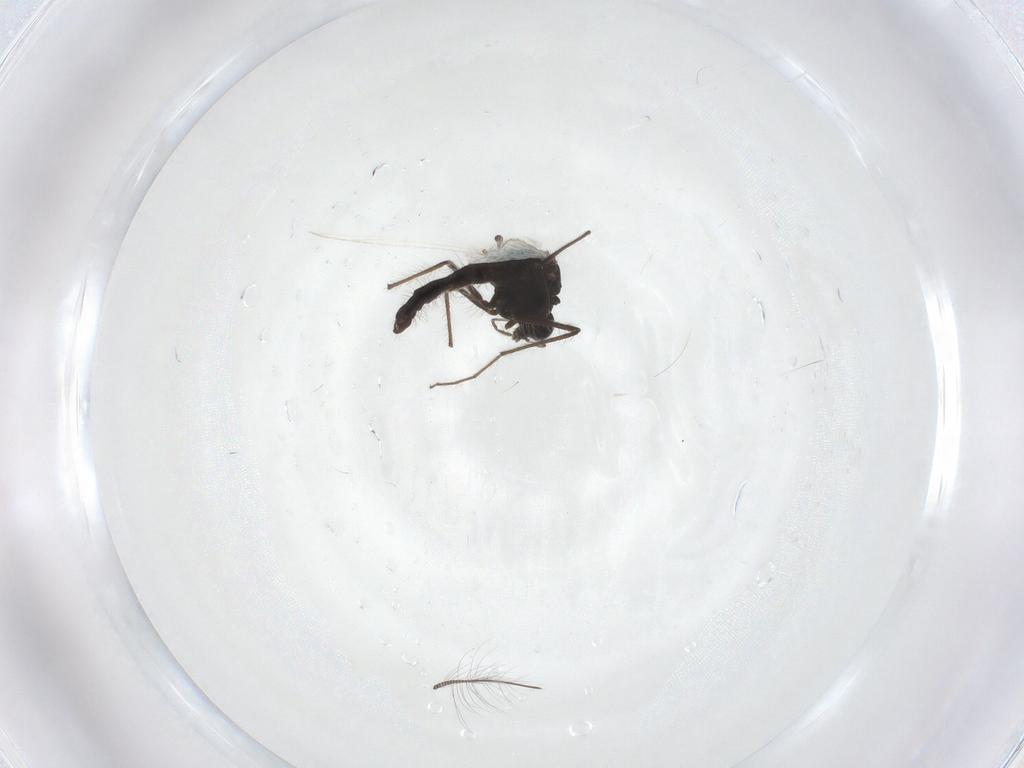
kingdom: Animalia
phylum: Arthropoda
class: Insecta
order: Diptera
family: Chironomidae
